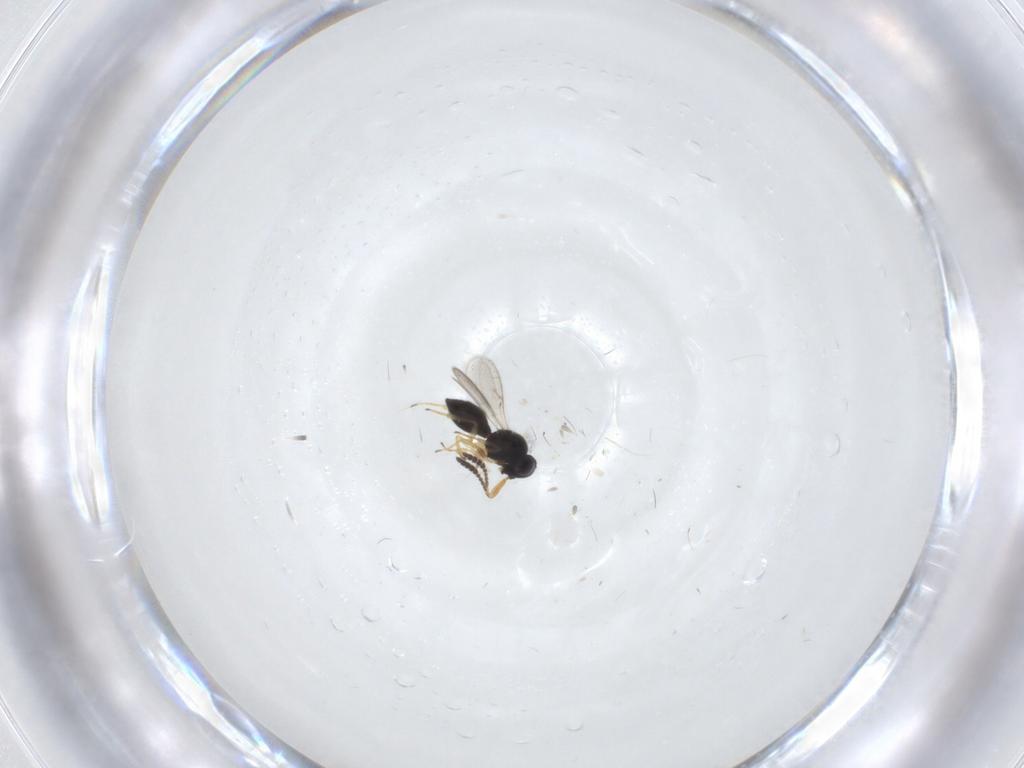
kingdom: Animalia
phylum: Arthropoda
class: Insecta
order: Hymenoptera
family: Scelionidae
